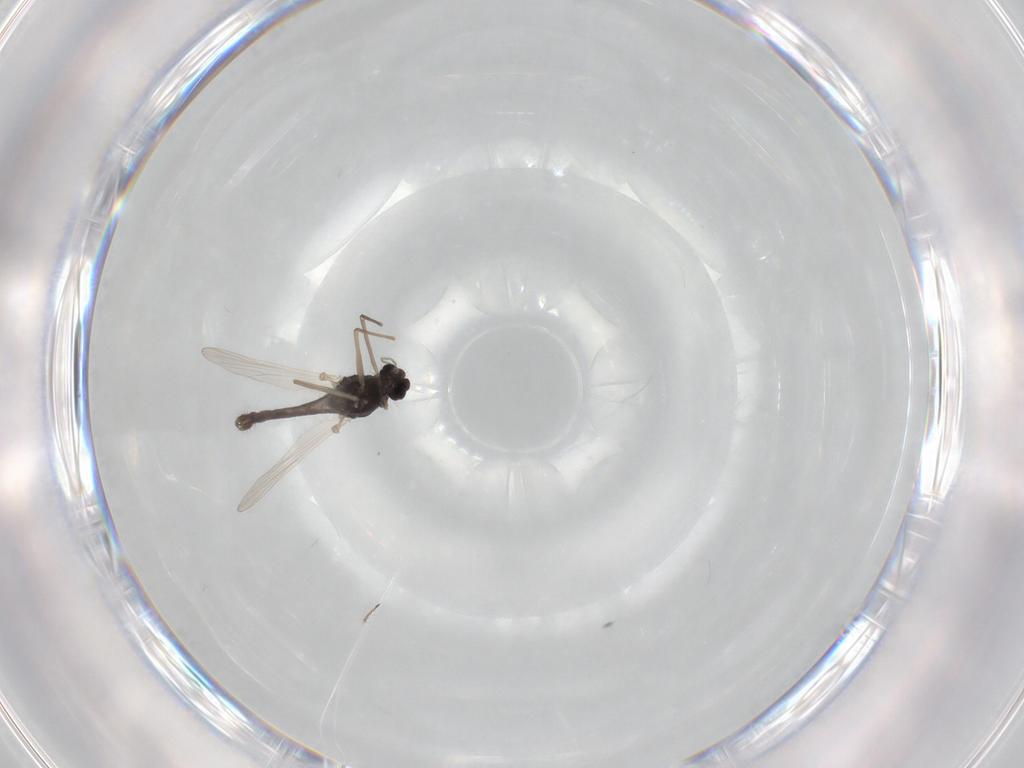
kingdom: Animalia
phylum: Arthropoda
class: Insecta
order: Diptera
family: Chironomidae
